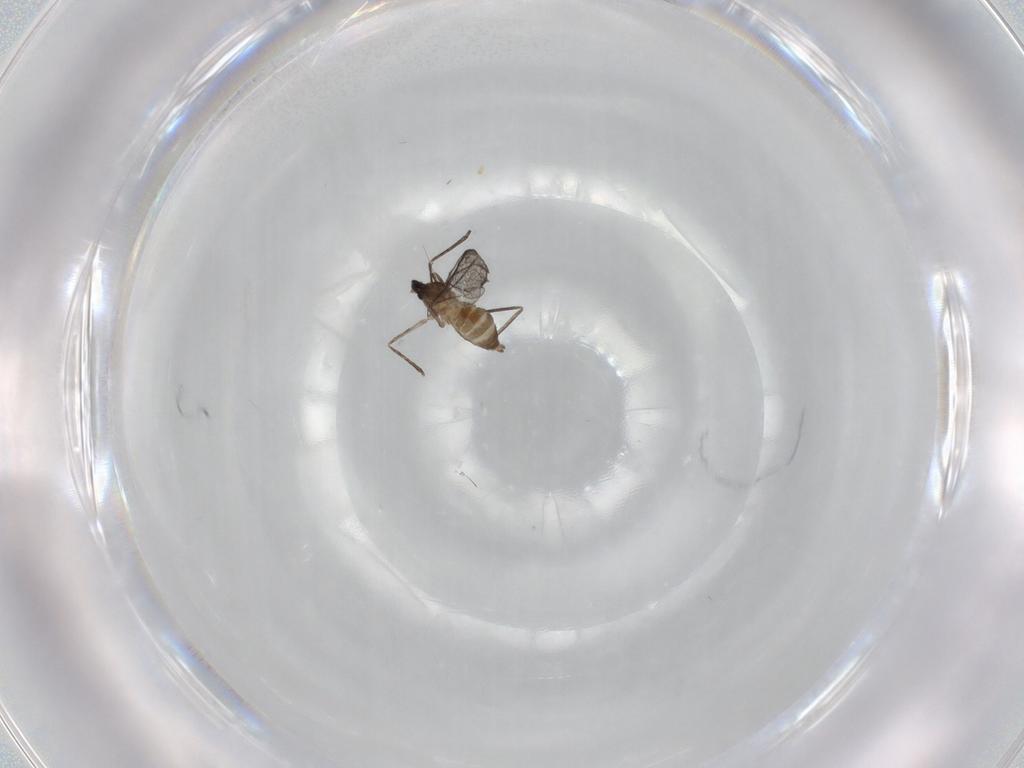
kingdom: Animalia
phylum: Arthropoda
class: Insecta
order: Diptera
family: Cecidomyiidae
